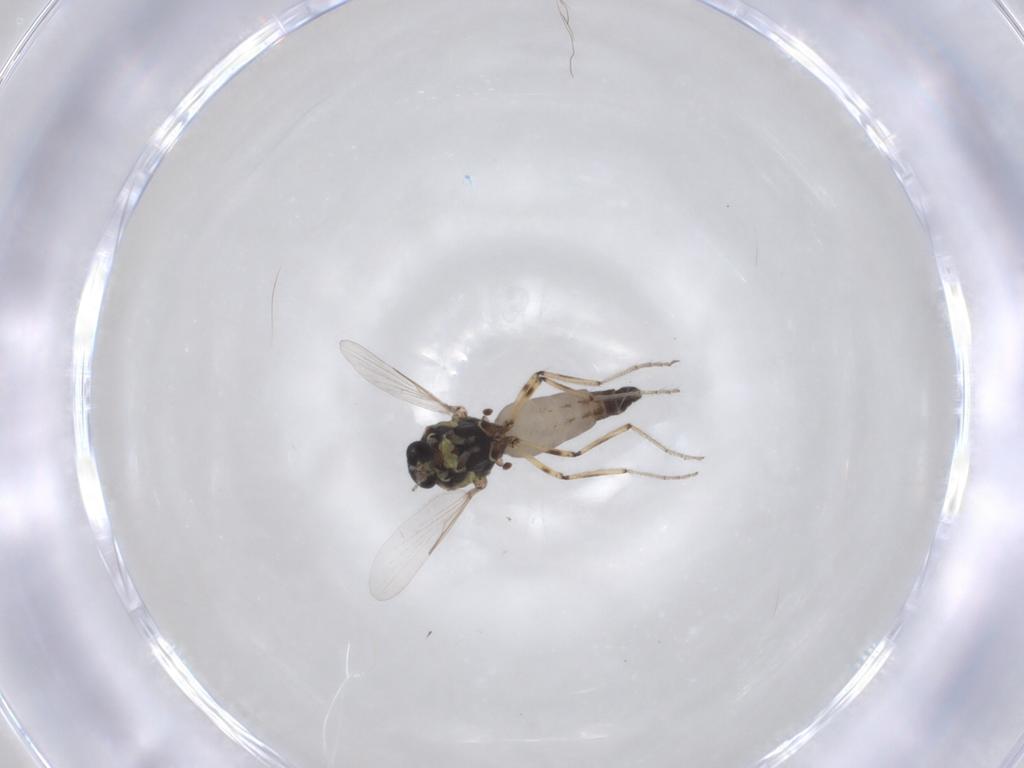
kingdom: Animalia
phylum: Arthropoda
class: Insecta
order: Diptera
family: Ceratopogonidae
